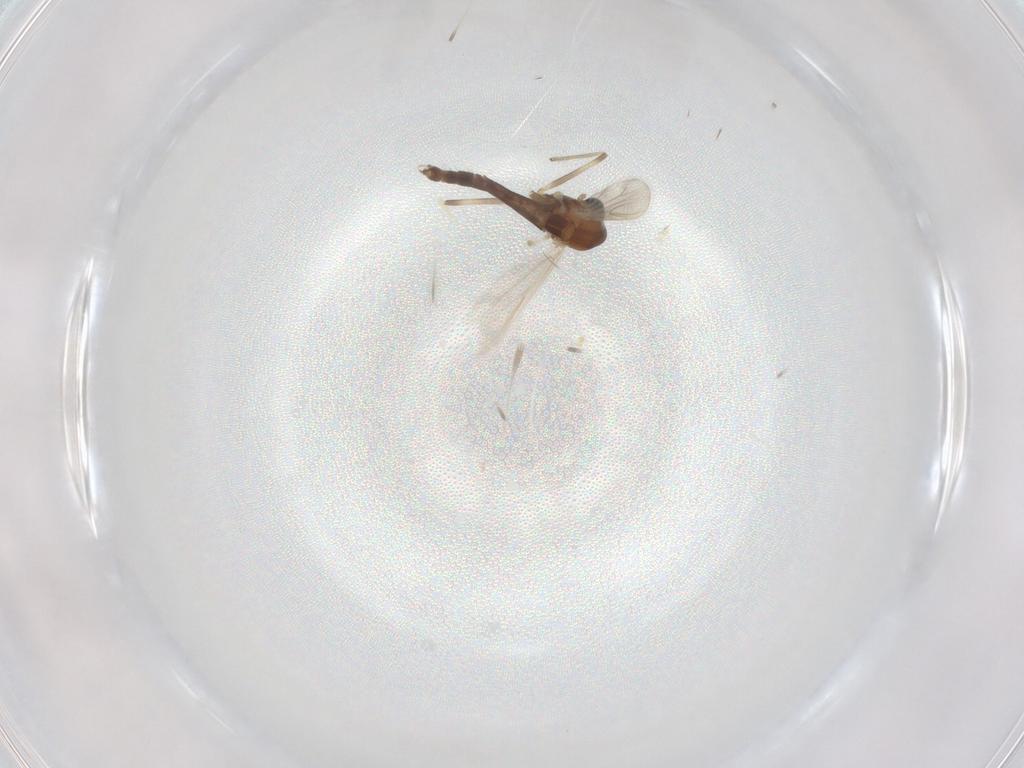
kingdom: Animalia
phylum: Arthropoda
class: Insecta
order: Diptera
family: Chironomidae
